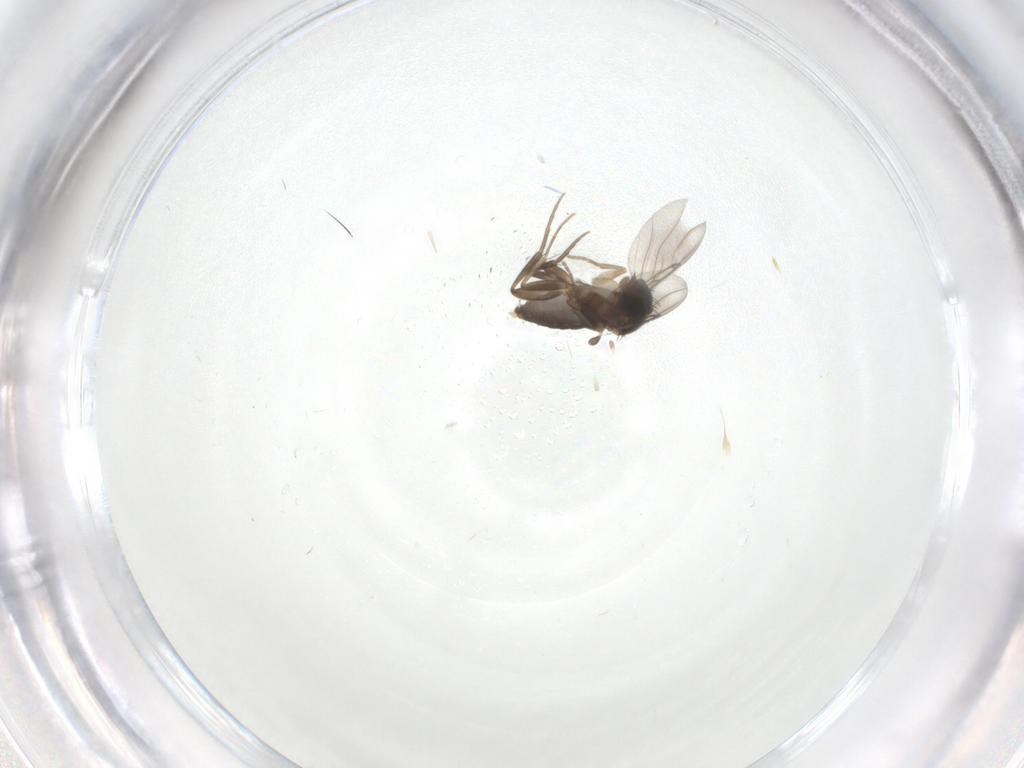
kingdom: Animalia
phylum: Arthropoda
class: Insecta
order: Diptera
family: Phoridae
